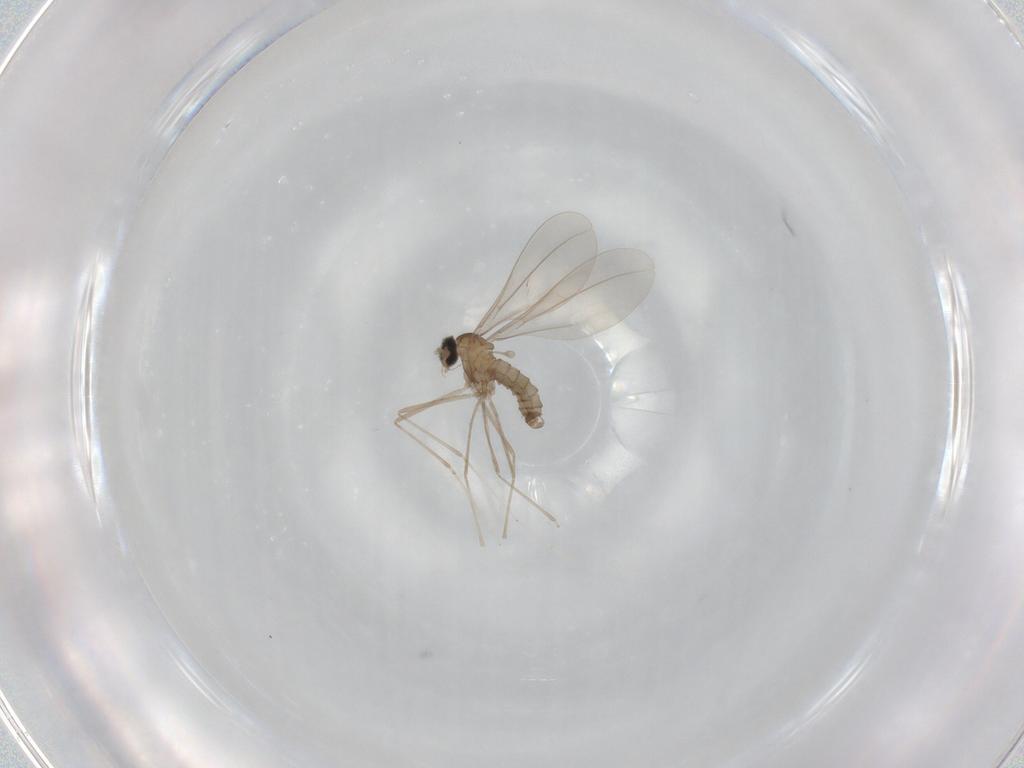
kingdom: Animalia
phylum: Arthropoda
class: Insecta
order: Diptera
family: Cecidomyiidae
